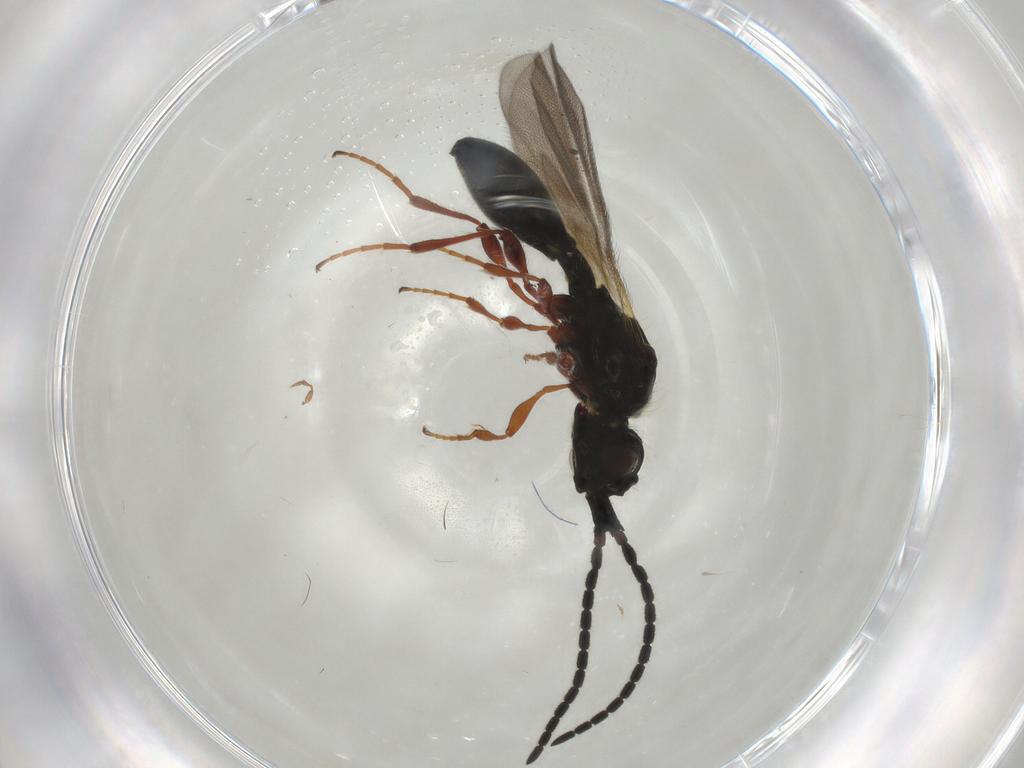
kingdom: Animalia
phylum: Arthropoda
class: Insecta
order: Hymenoptera
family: Diapriidae
